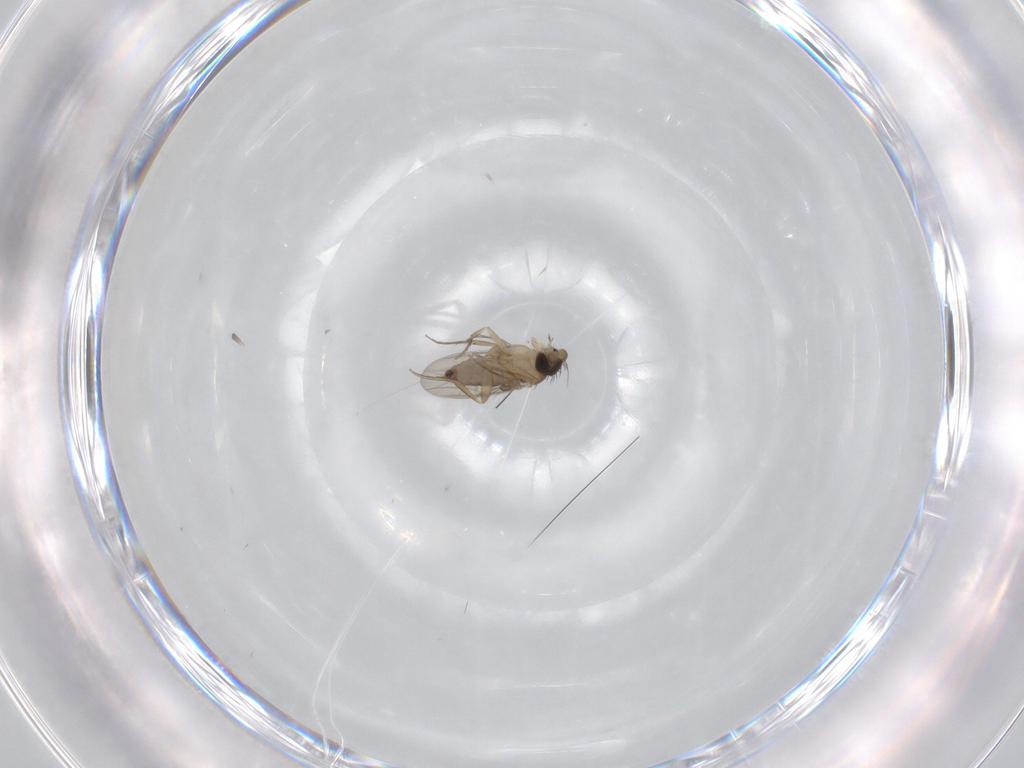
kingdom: Animalia
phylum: Arthropoda
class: Insecta
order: Diptera
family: Phoridae
